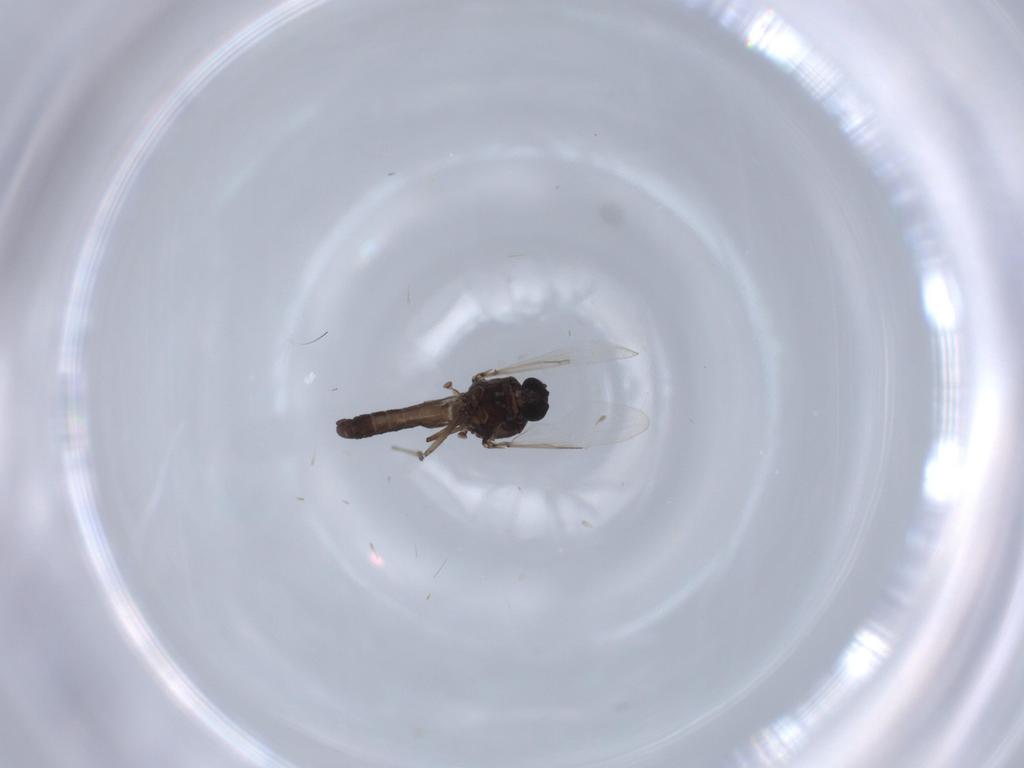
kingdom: Animalia
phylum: Arthropoda
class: Insecta
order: Diptera
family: Ceratopogonidae
